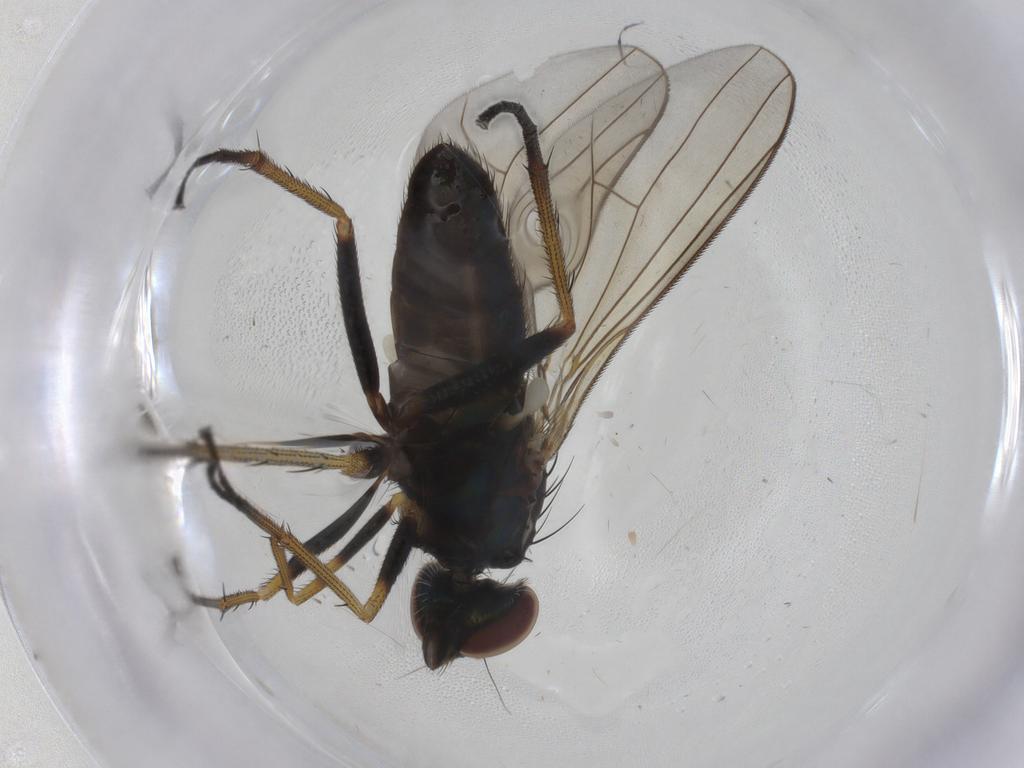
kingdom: Animalia
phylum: Arthropoda
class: Insecta
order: Diptera
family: Dolichopodidae
